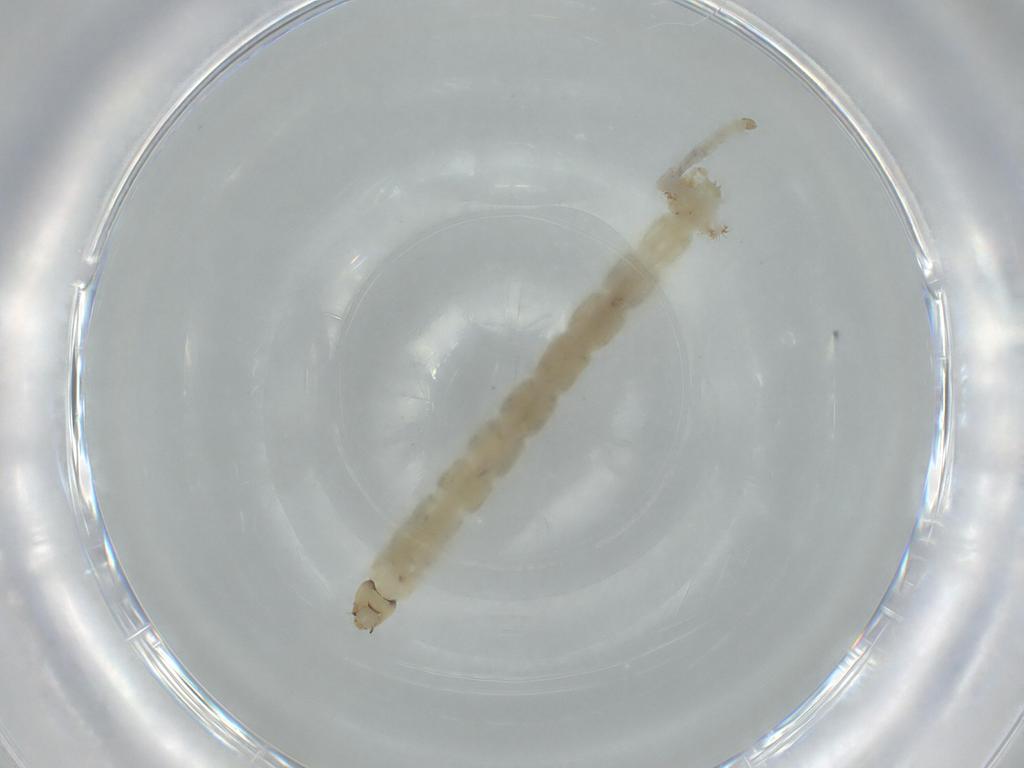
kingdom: Animalia
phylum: Arthropoda
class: Insecta
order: Diptera
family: Chironomidae
